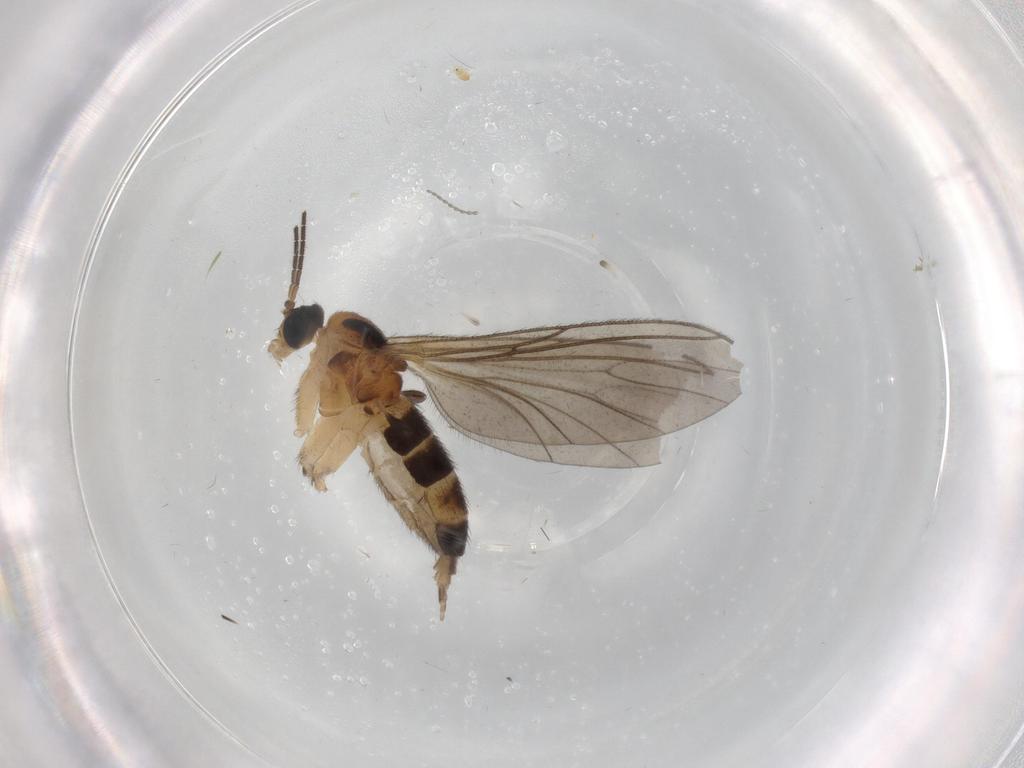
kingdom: Animalia
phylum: Arthropoda
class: Insecta
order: Diptera
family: Sciaridae
